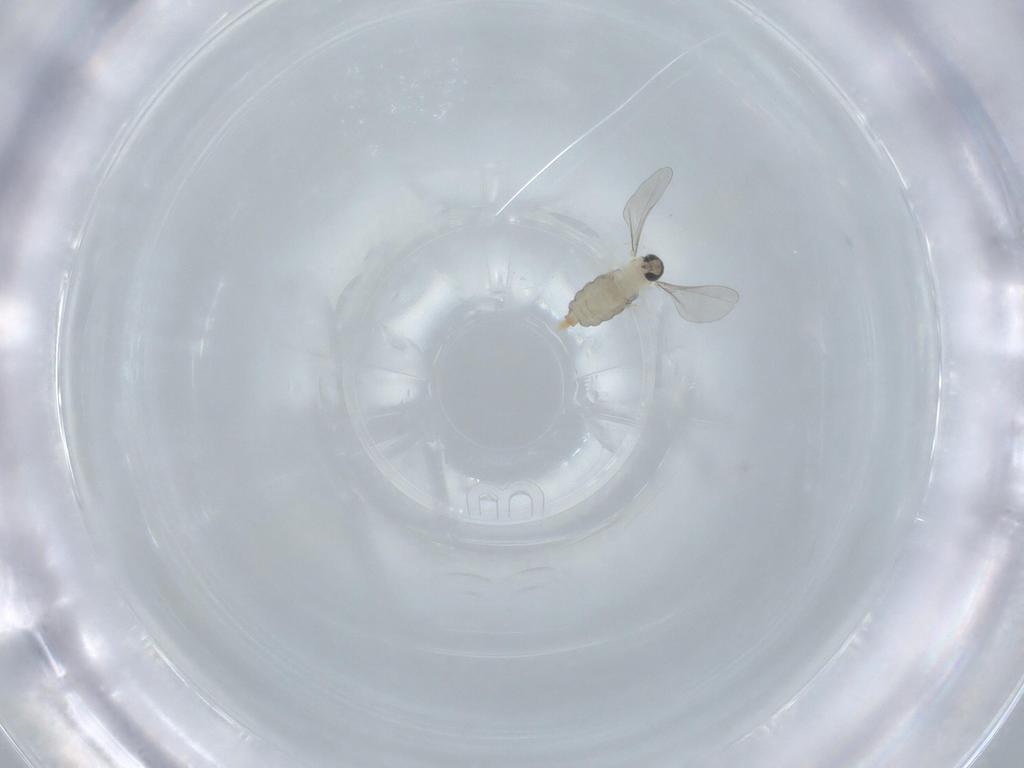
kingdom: Animalia
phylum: Arthropoda
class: Insecta
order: Diptera
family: Cecidomyiidae
